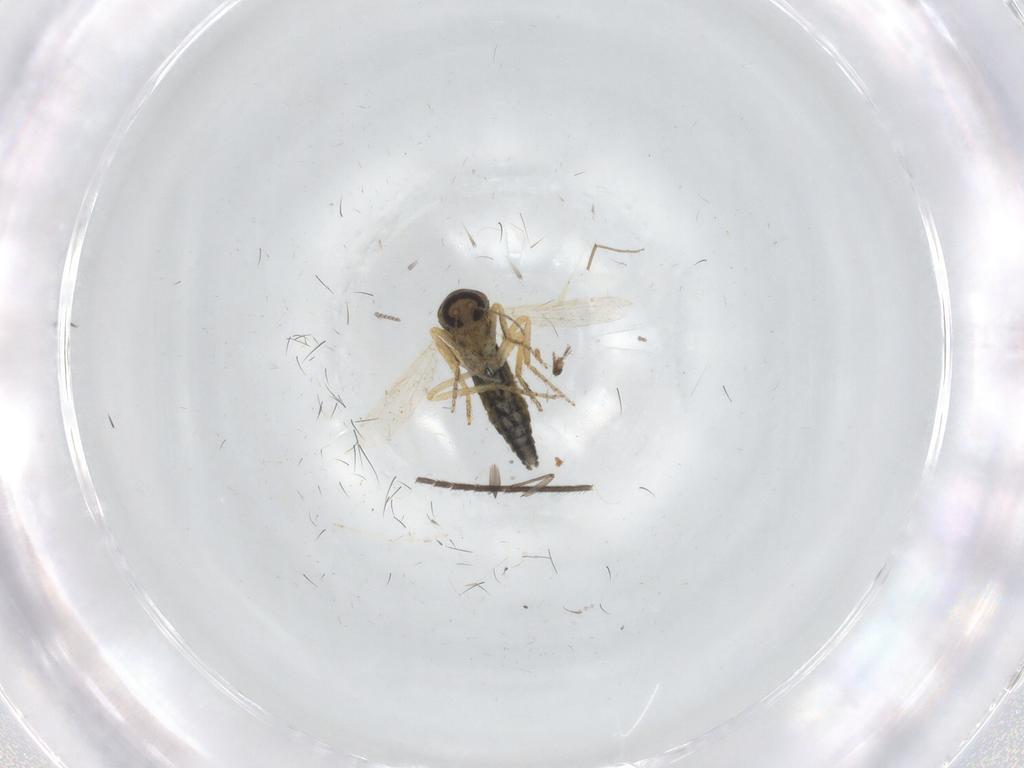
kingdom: Animalia
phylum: Arthropoda
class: Insecta
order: Diptera
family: Ceratopogonidae
